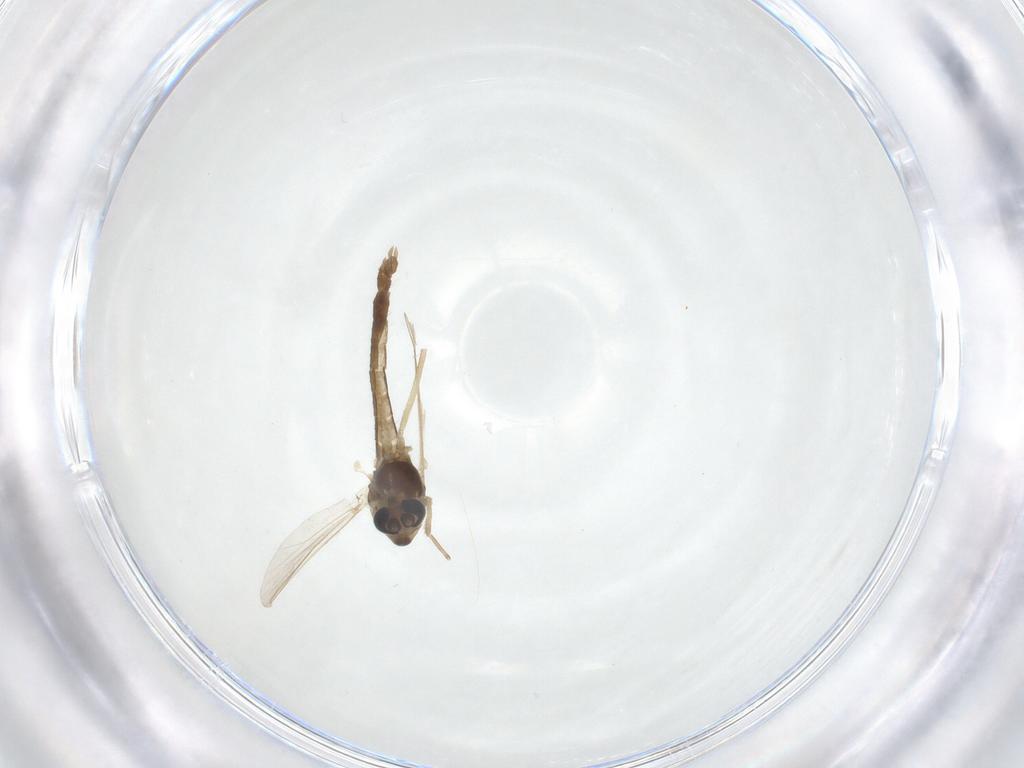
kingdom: Animalia
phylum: Arthropoda
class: Insecta
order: Diptera
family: Chironomidae
